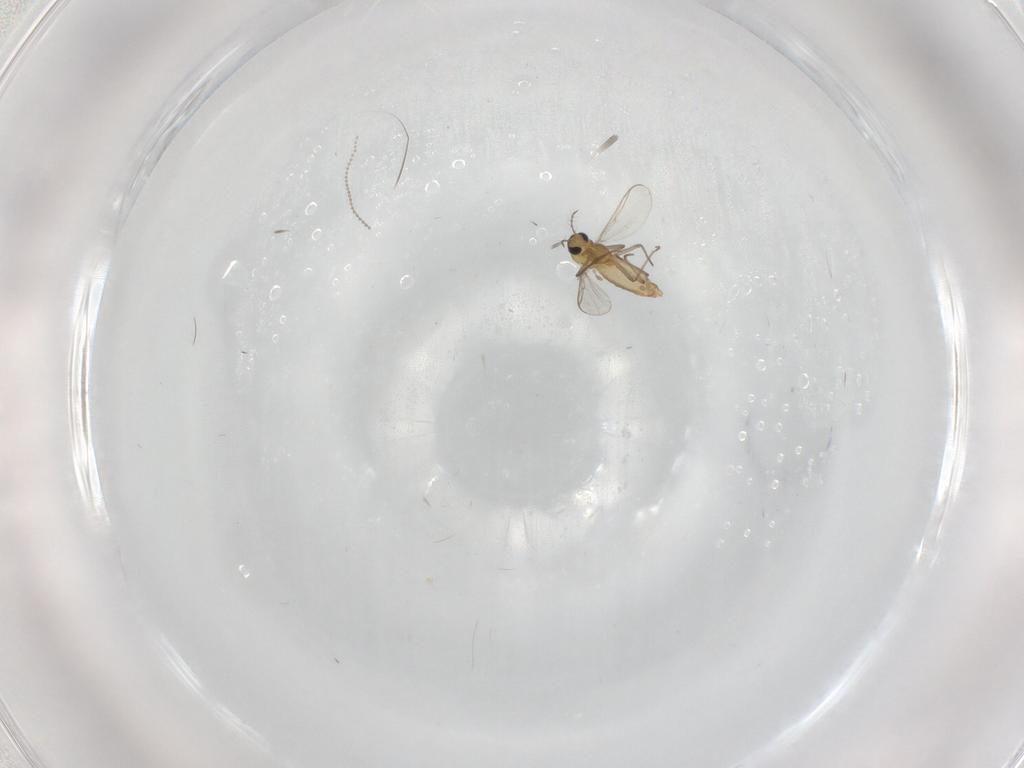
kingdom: Animalia
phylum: Arthropoda
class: Insecta
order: Diptera
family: Cecidomyiidae
